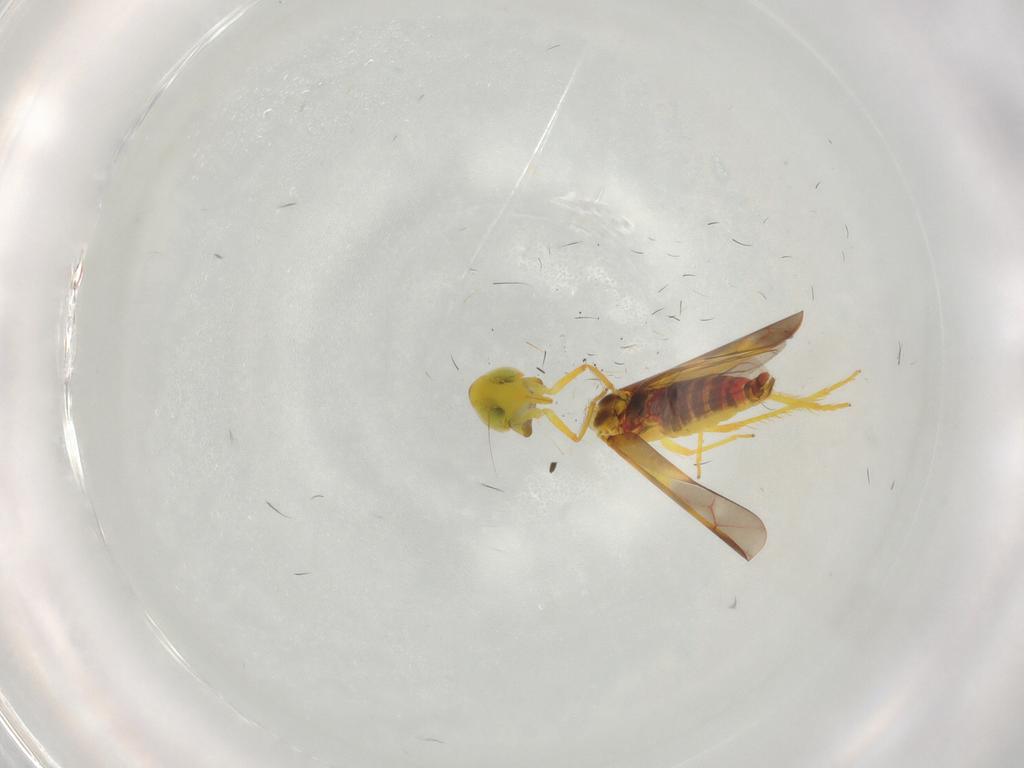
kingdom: Animalia
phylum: Arthropoda
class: Insecta
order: Hemiptera
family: Cicadellidae
